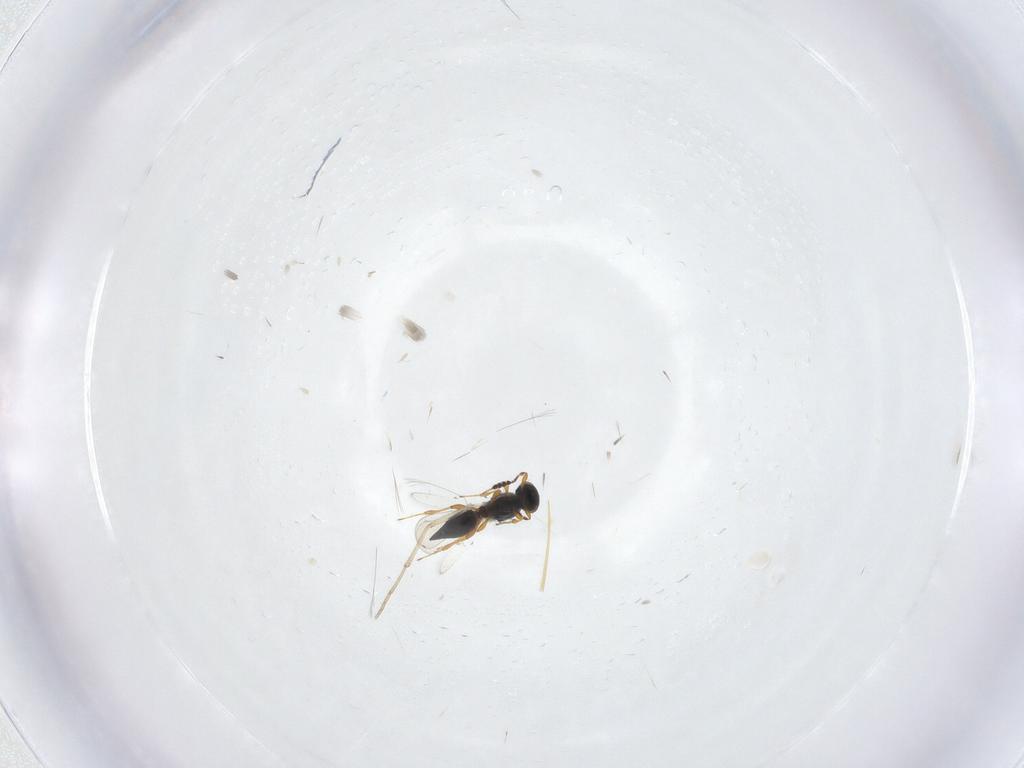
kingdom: Animalia
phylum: Arthropoda
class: Insecta
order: Hymenoptera
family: Platygastridae
